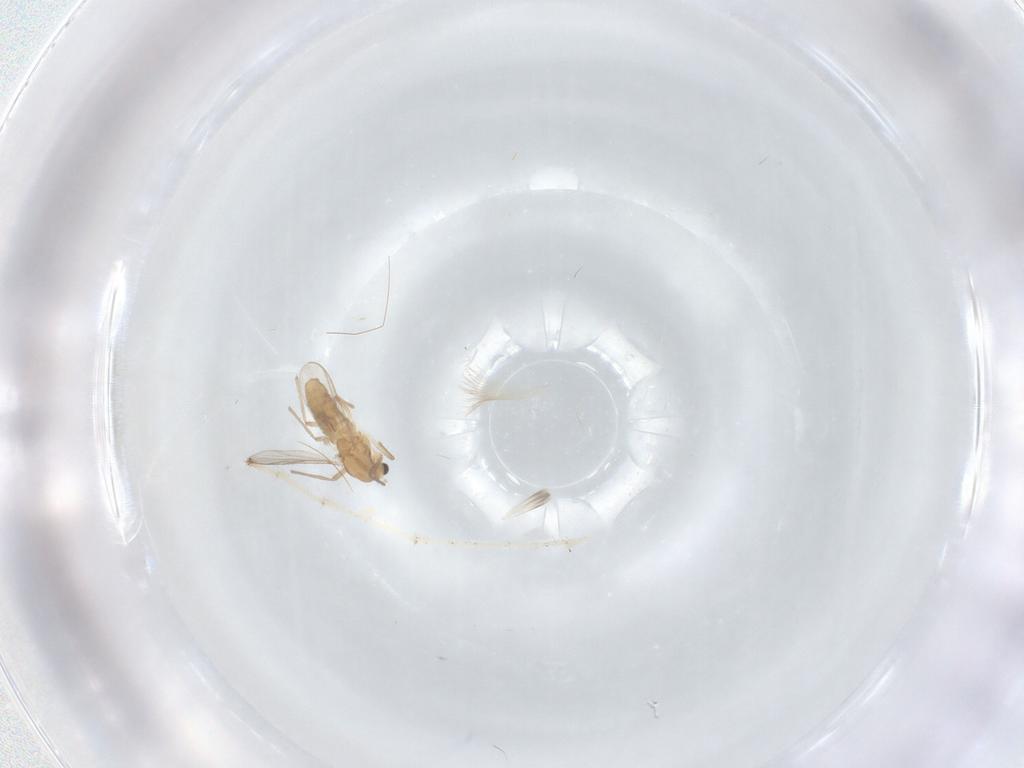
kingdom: Animalia
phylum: Arthropoda
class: Insecta
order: Diptera
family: Chironomidae
